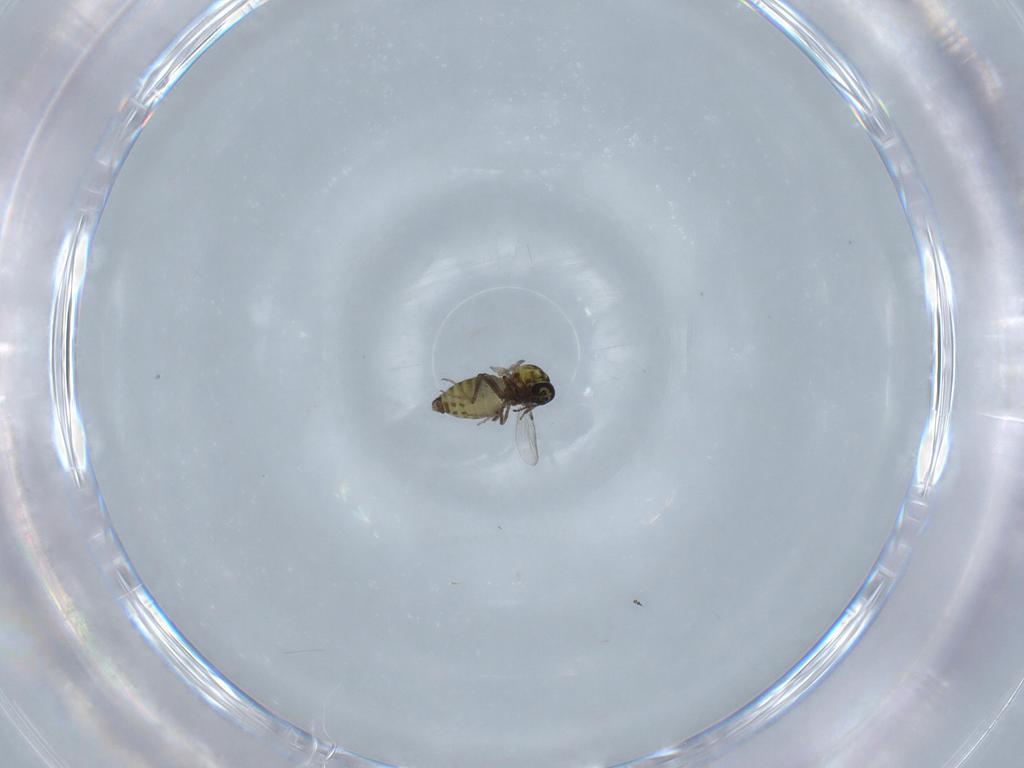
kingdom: Animalia
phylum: Arthropoda
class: Insecta
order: Diptera
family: Ceratopogonidae
